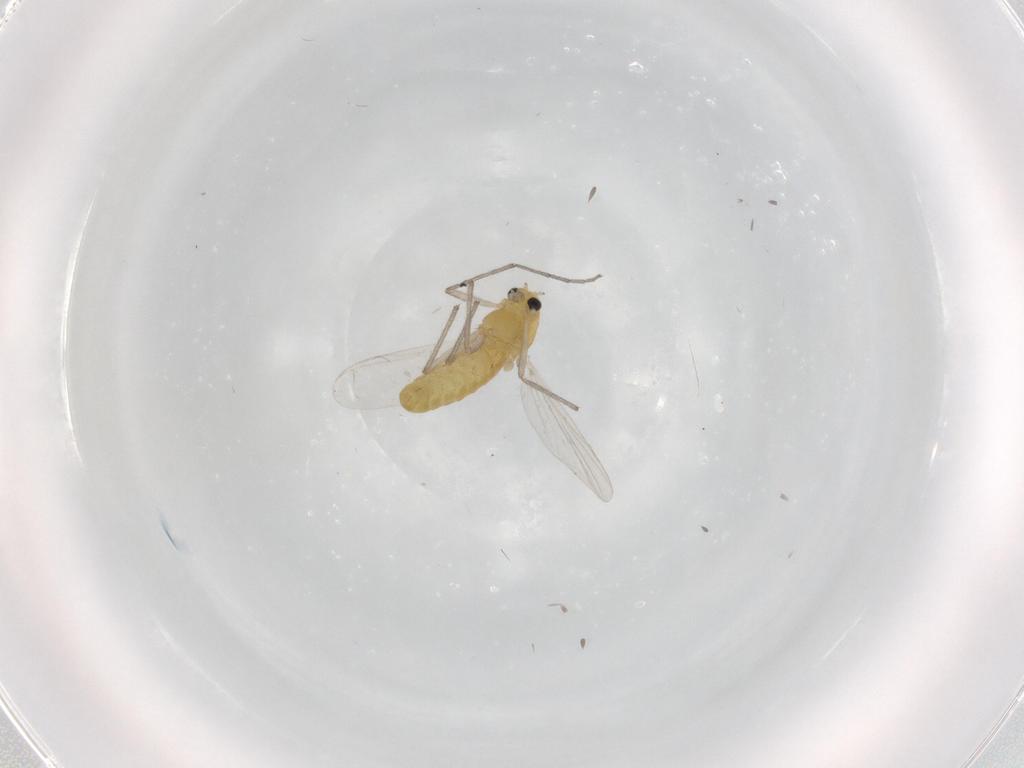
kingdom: Animalia
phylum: Arthropoda
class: Insecta
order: Diptera
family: Chironomidae
